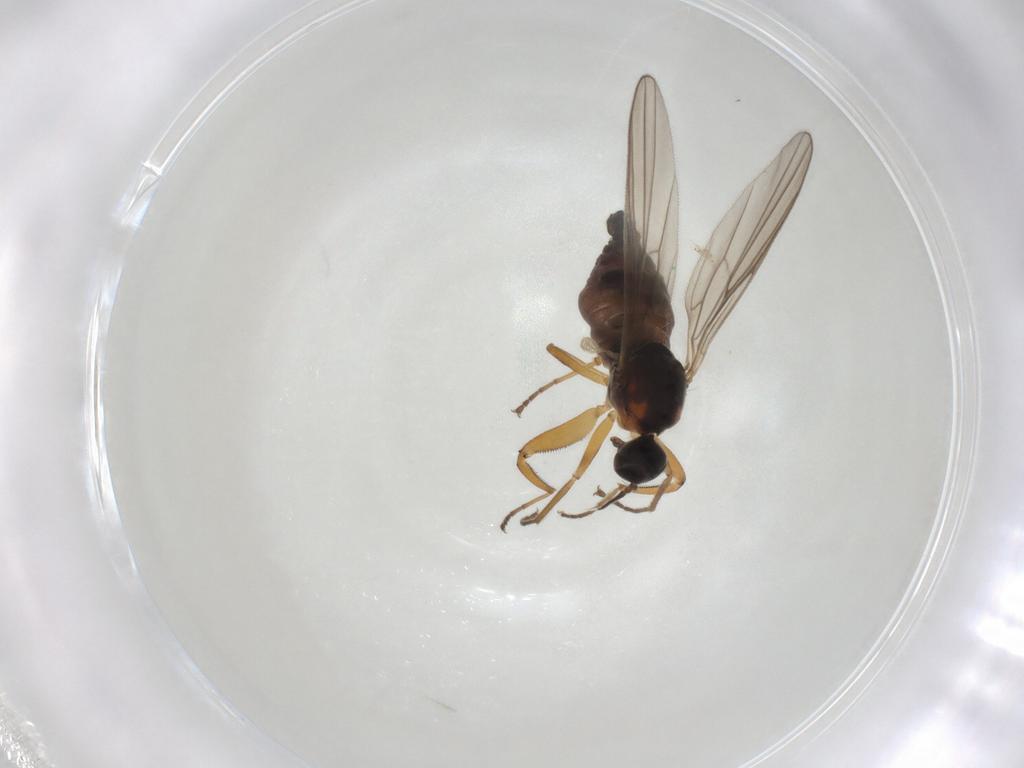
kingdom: Animalia
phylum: Arthropoda
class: Insecta
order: Diptera
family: Hybotidae
